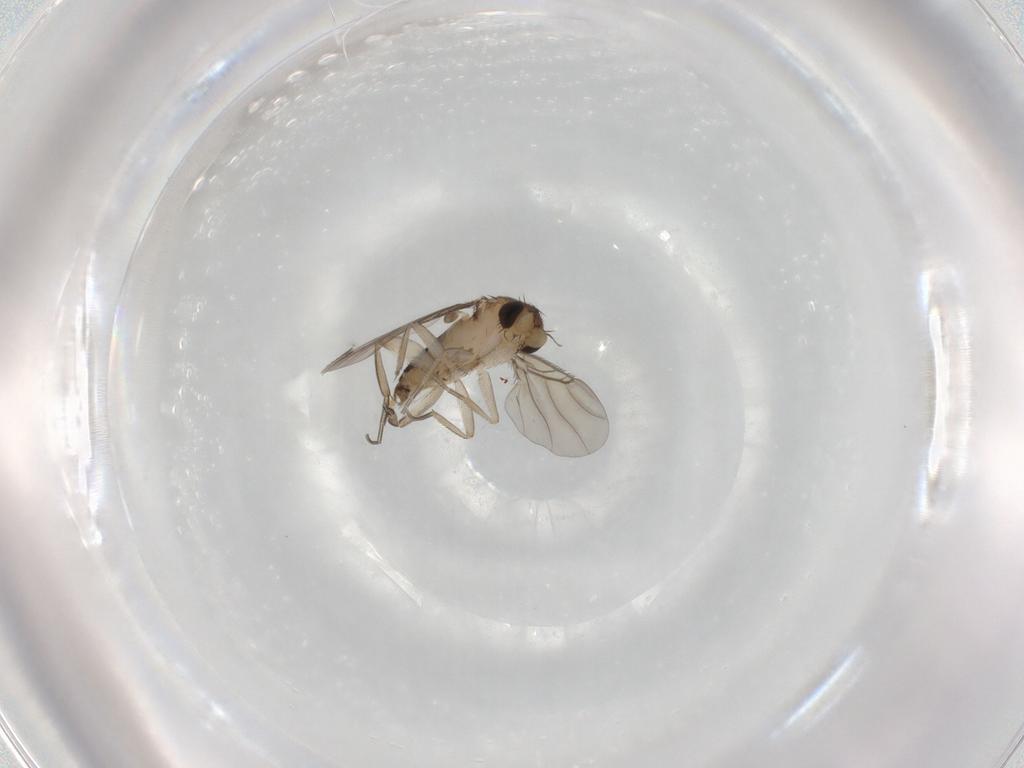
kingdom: Animalia
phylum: Arthropoda
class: Insecta
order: Diptera
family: Phoridae
